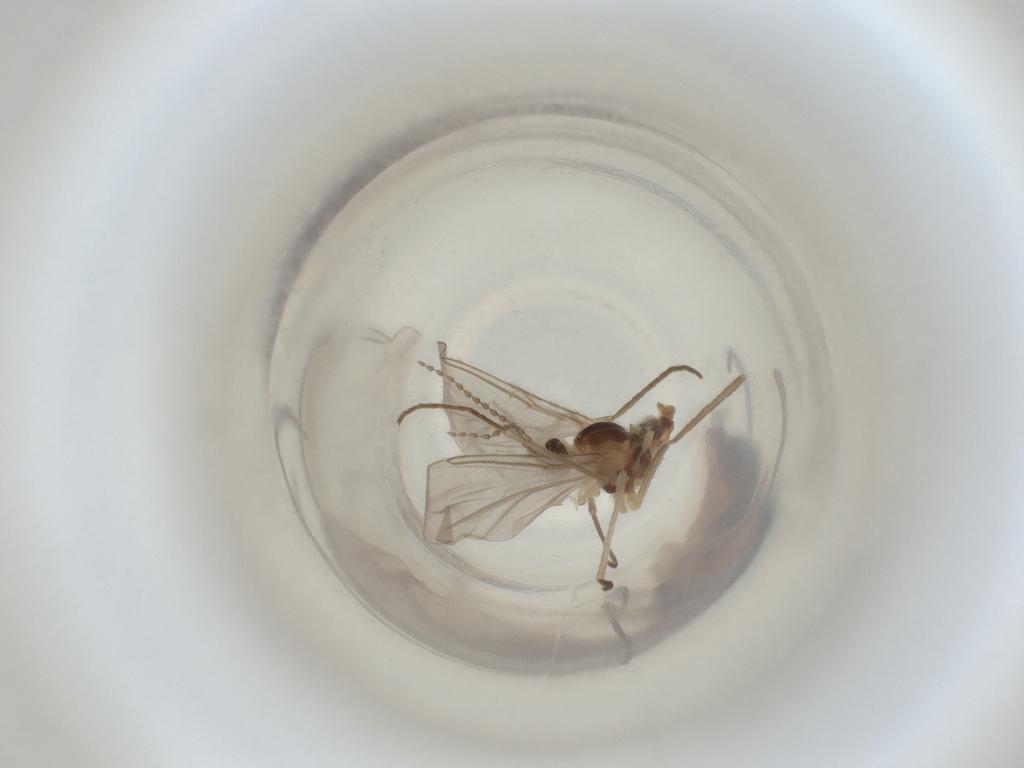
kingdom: Animalia
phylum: Arthropoda
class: Insecta
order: Diptera
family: Cecidomyiidae
